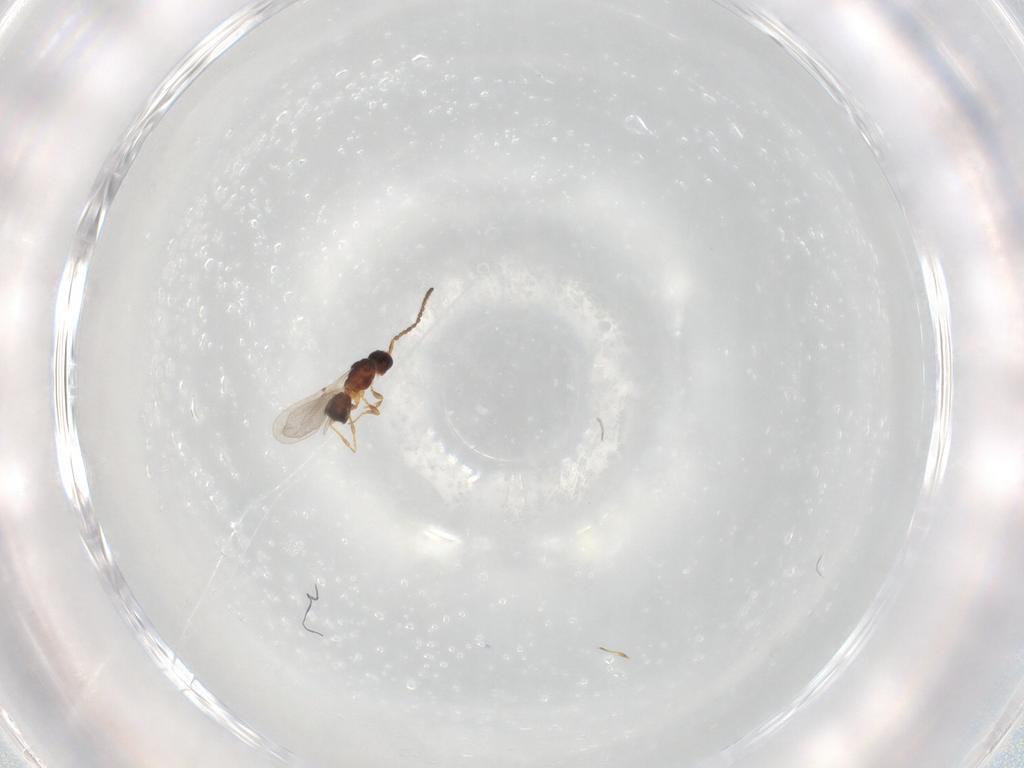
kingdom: Animalia
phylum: Arthropoda
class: Insecta
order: Hymenoptera
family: Diapriidae
